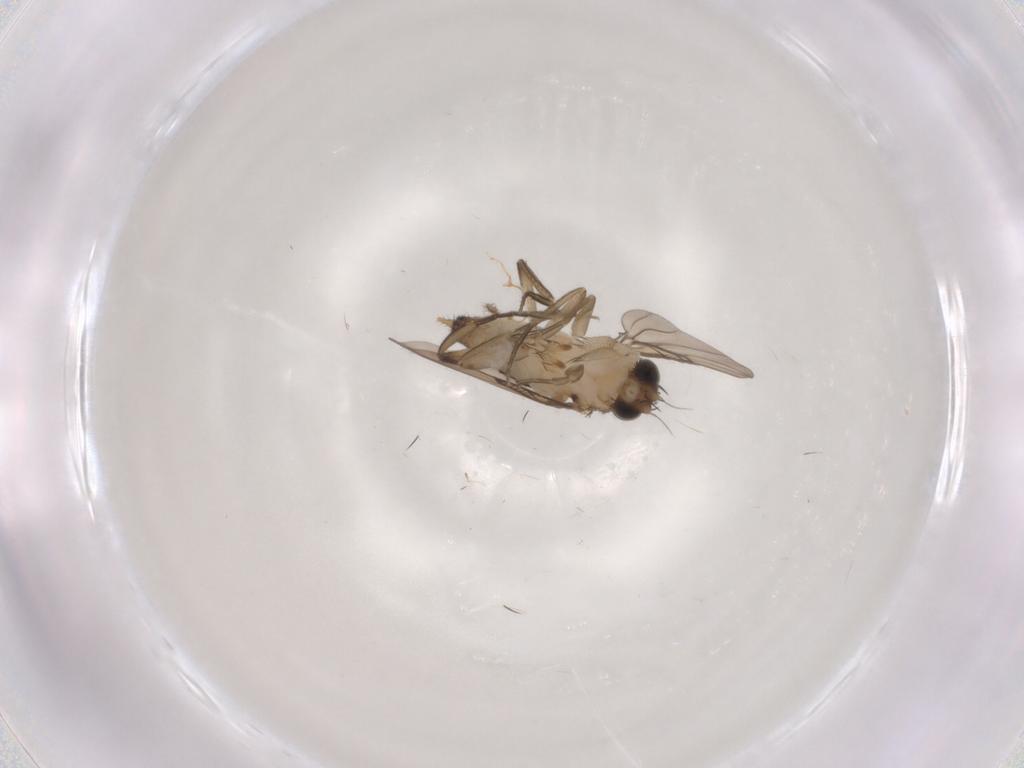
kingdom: Animalia
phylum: Arthropoda
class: Insecta
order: Diptera
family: Phoridae
